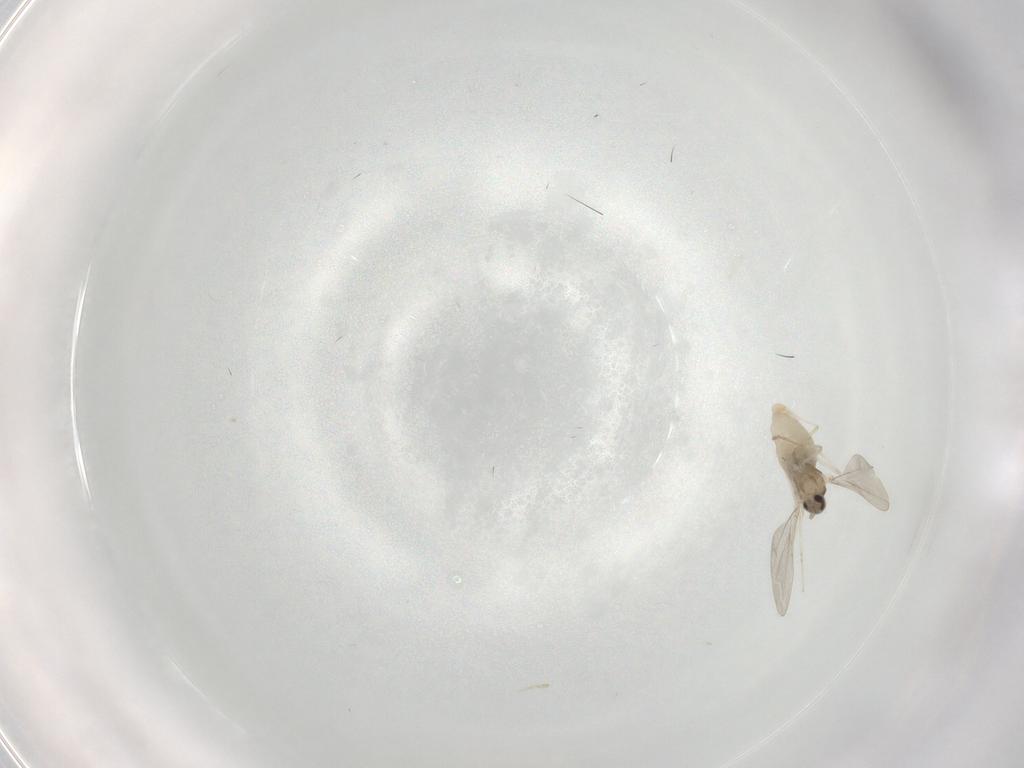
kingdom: Animalia
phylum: Arthropoda
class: Insecta
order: Diptera
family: Cecidomyiidae
